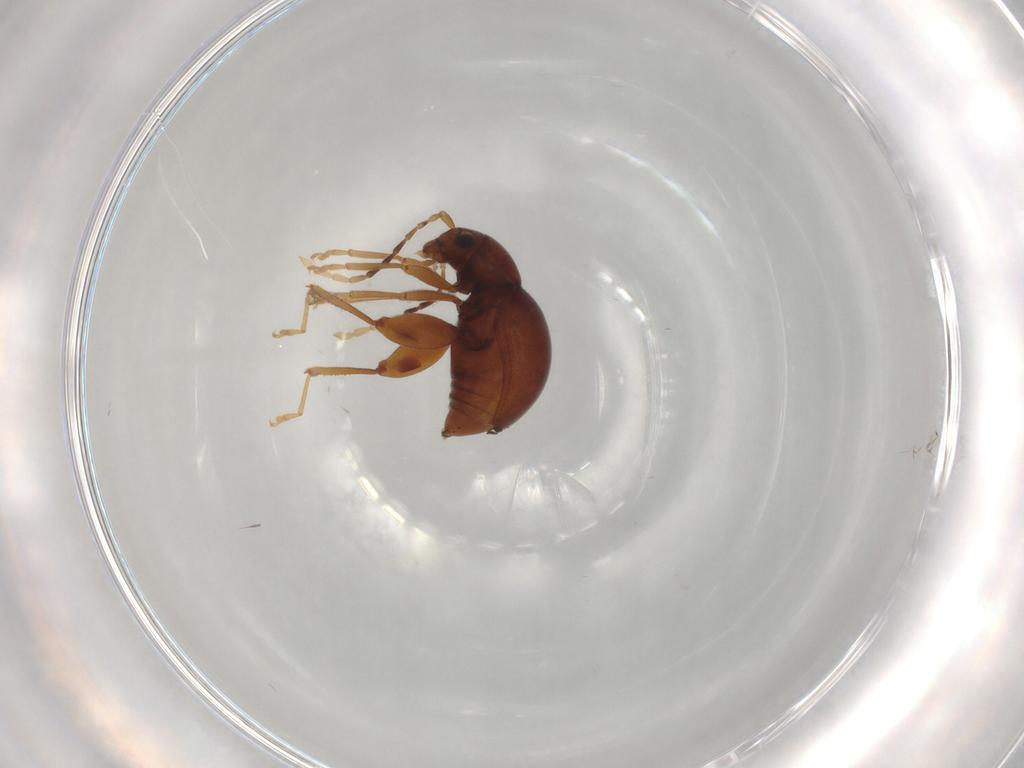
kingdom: Animalia
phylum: Arthropoda
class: Insecta
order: Coleoptera
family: Chrysomelidae
